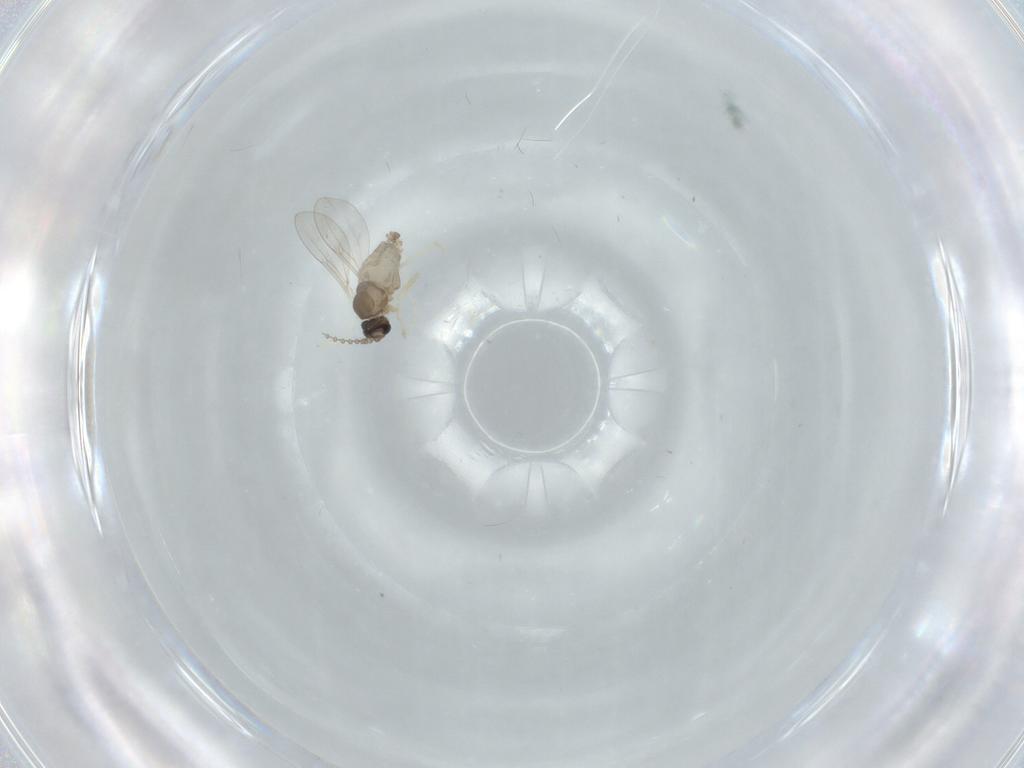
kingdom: Animalia
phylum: Arthropoda
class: Insecta
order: Diptera
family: Cecidomyiidae
